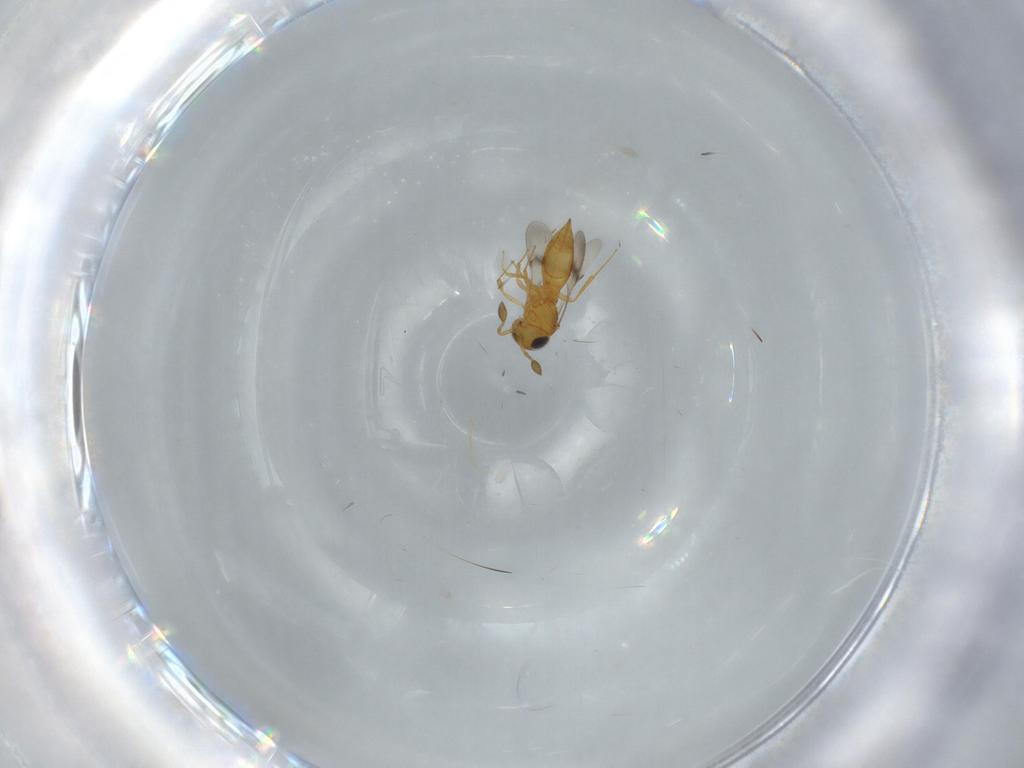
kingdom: Animalia
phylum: Arthropoda
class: Insecta
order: Hymenoptera
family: Scelionidae
